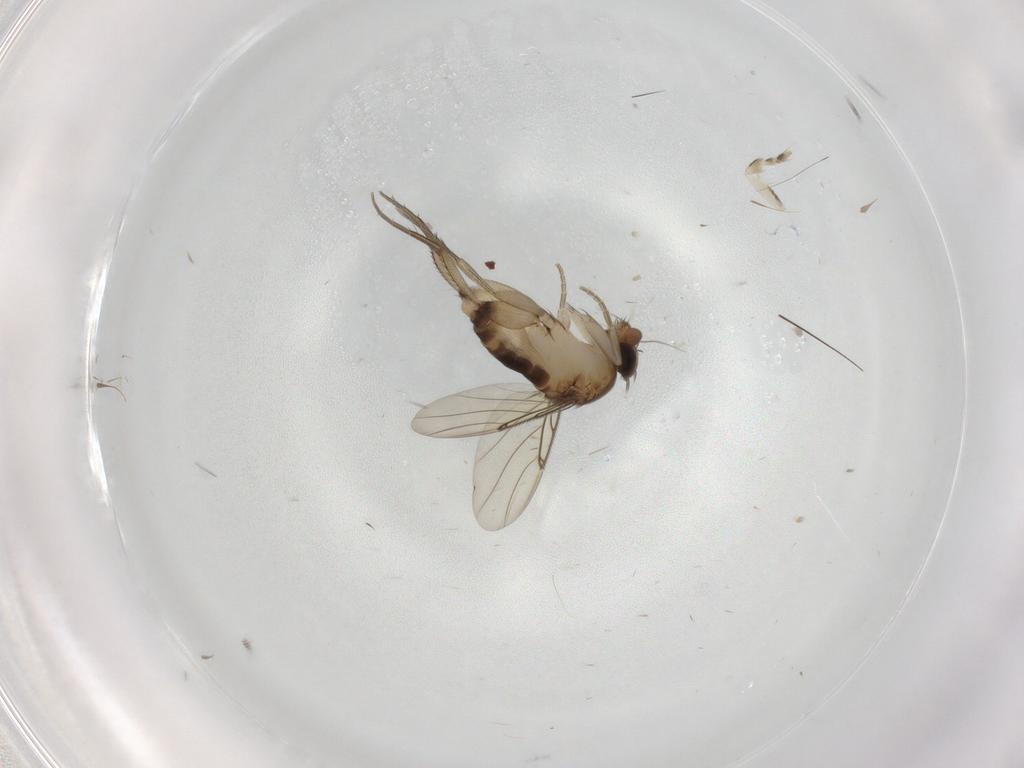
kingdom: Animalia
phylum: Arthropoda
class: Insecta
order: Diptera
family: Phoridae
